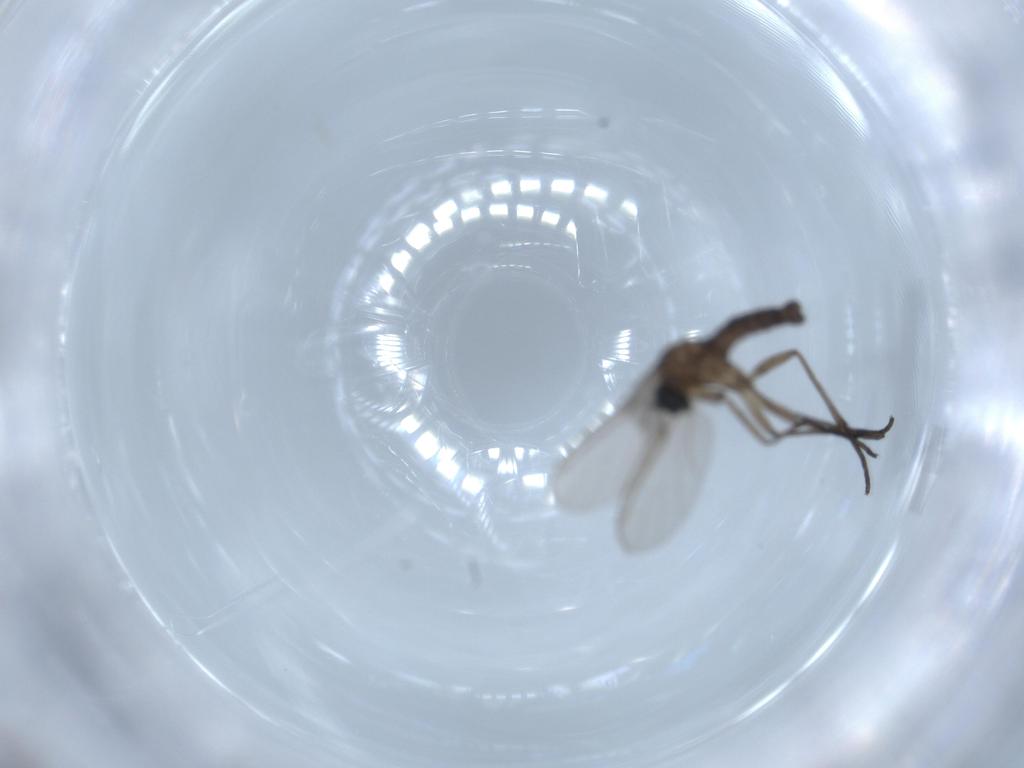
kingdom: Animalia
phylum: Arthropoda
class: Insecta
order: Diptera
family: Sciaridae
